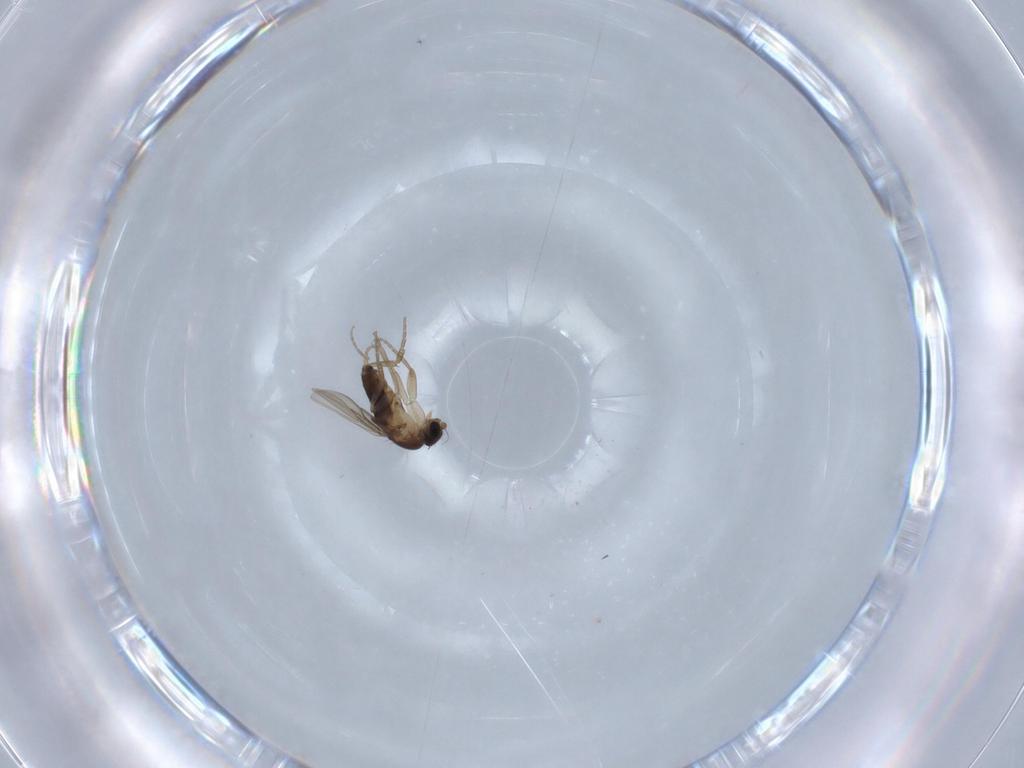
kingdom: Animalia
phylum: Arthropoda
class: Insecta
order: Diptera
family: Phoridae
